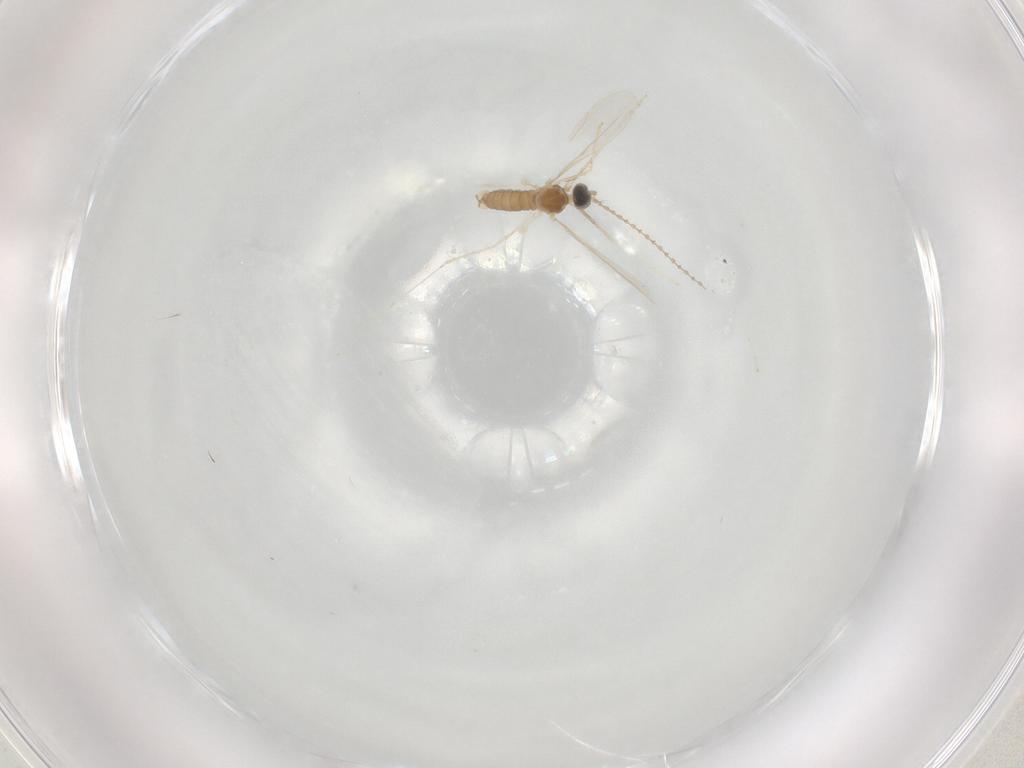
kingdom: Animalia
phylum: Arthropoda
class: Insecta
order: Diptera
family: Cecidomyiidae
